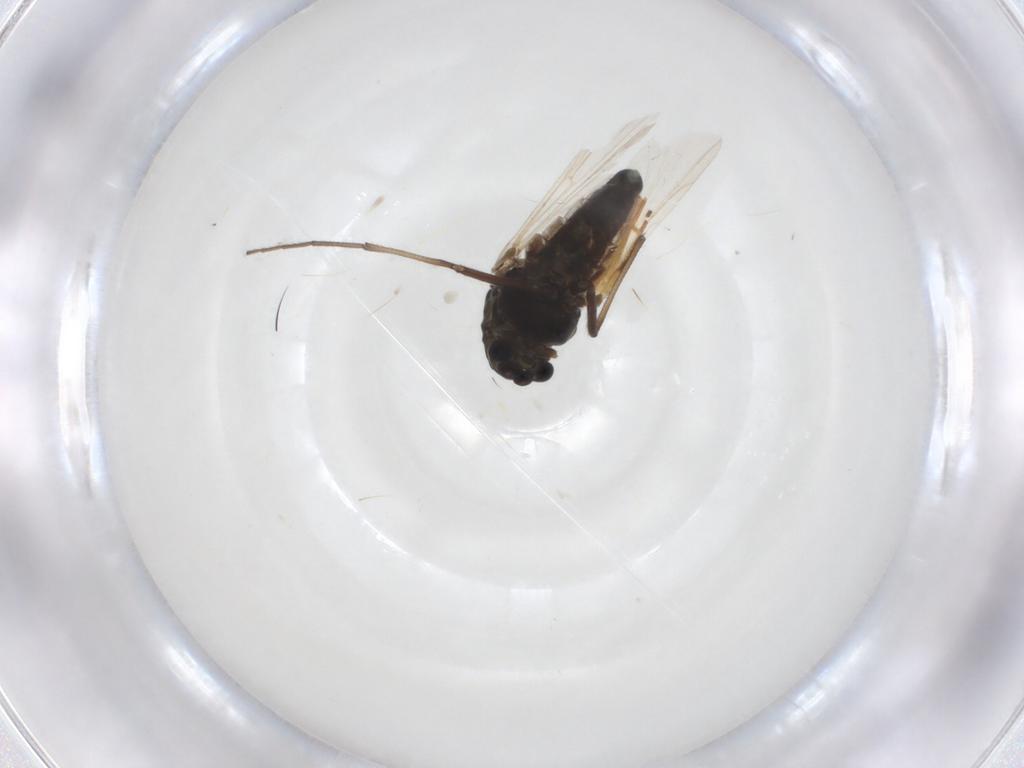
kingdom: Animalia
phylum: Arthropoda
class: Insecta
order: Diptera
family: Chironomidae
